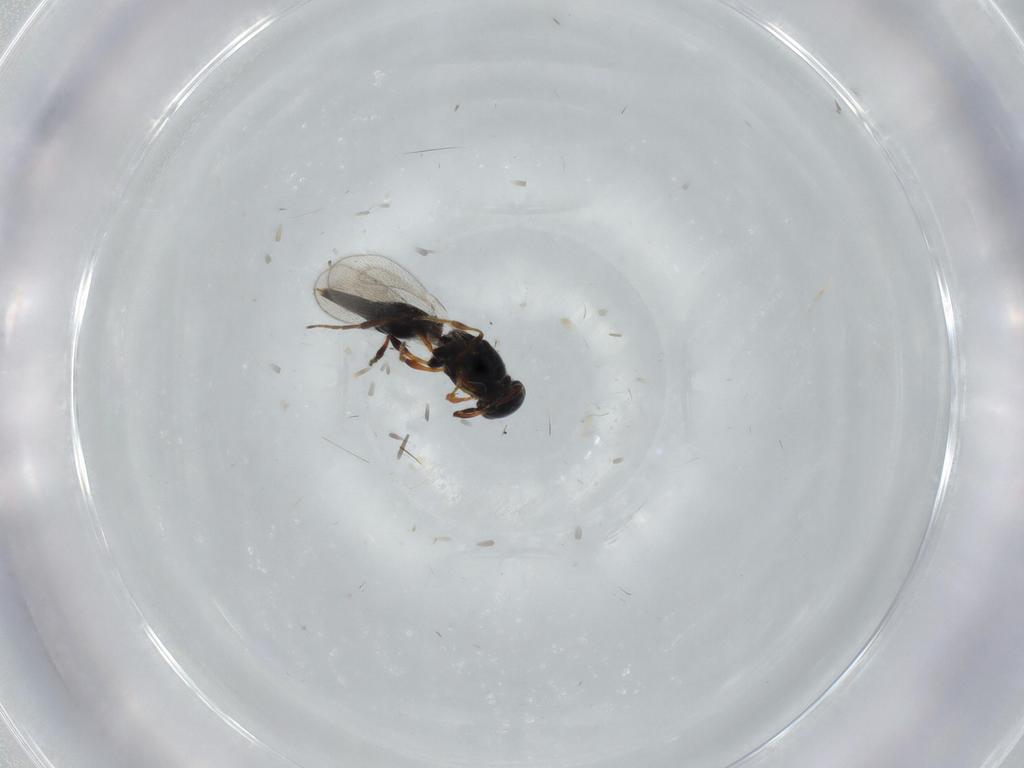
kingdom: Animalia
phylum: Arthropoda
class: Insecta
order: Hymenoptera
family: Platygastridae
